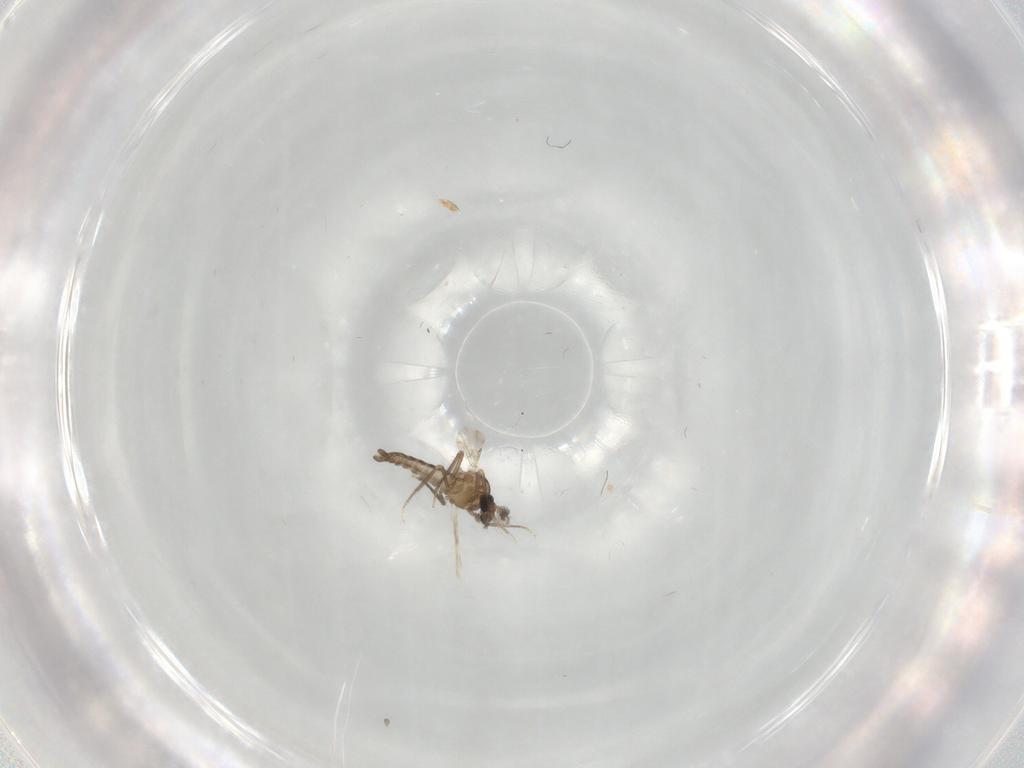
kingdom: Animalia
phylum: Arthropoda
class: Insecta
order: Diptera
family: Ceratopogonidae
